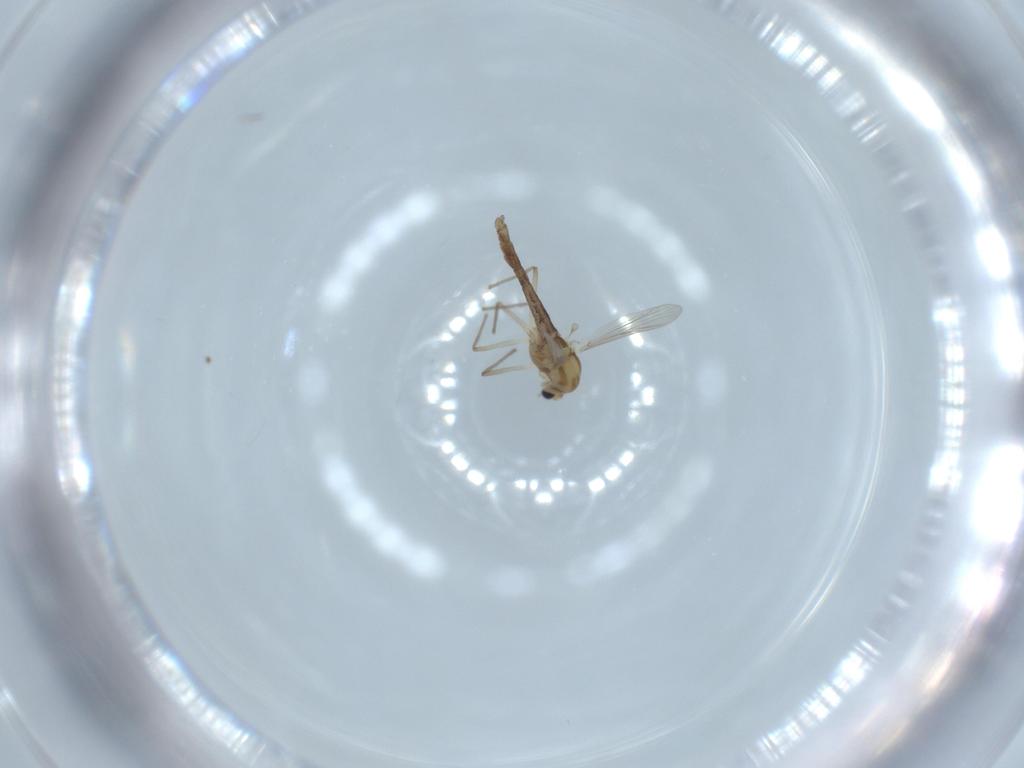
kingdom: Animalia
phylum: Arthropoda
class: Insecta
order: Diptera
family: Chironomidae
